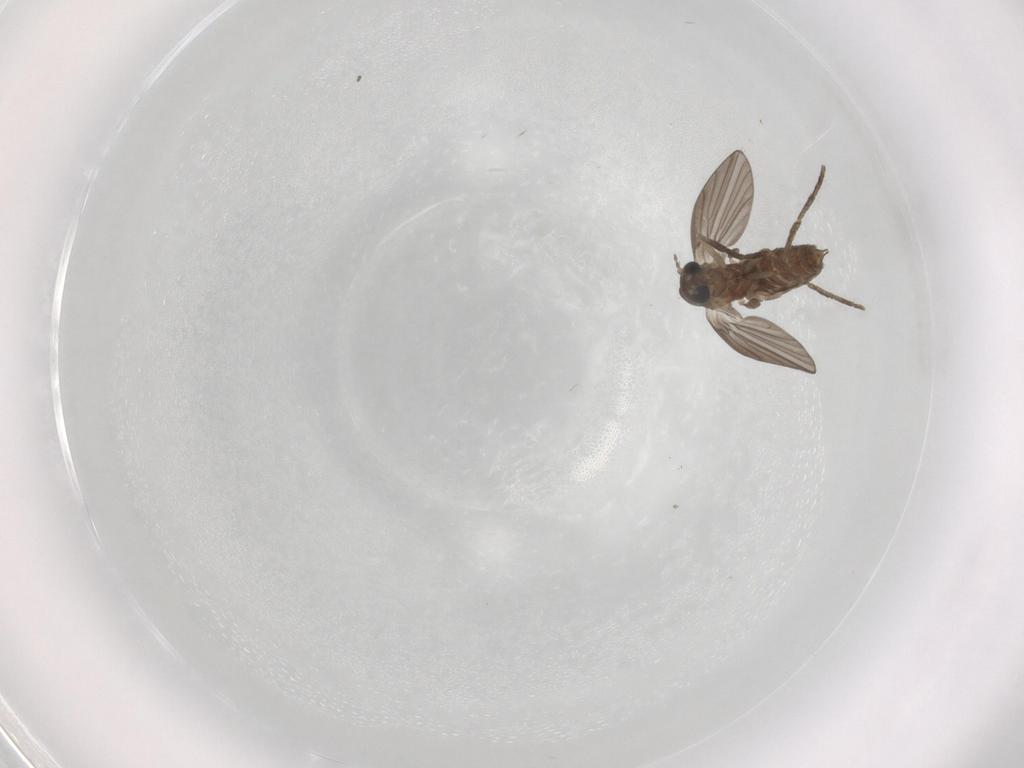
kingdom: Animalia
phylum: Arthropoda
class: Insecta
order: Diptera
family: Psychodidae
